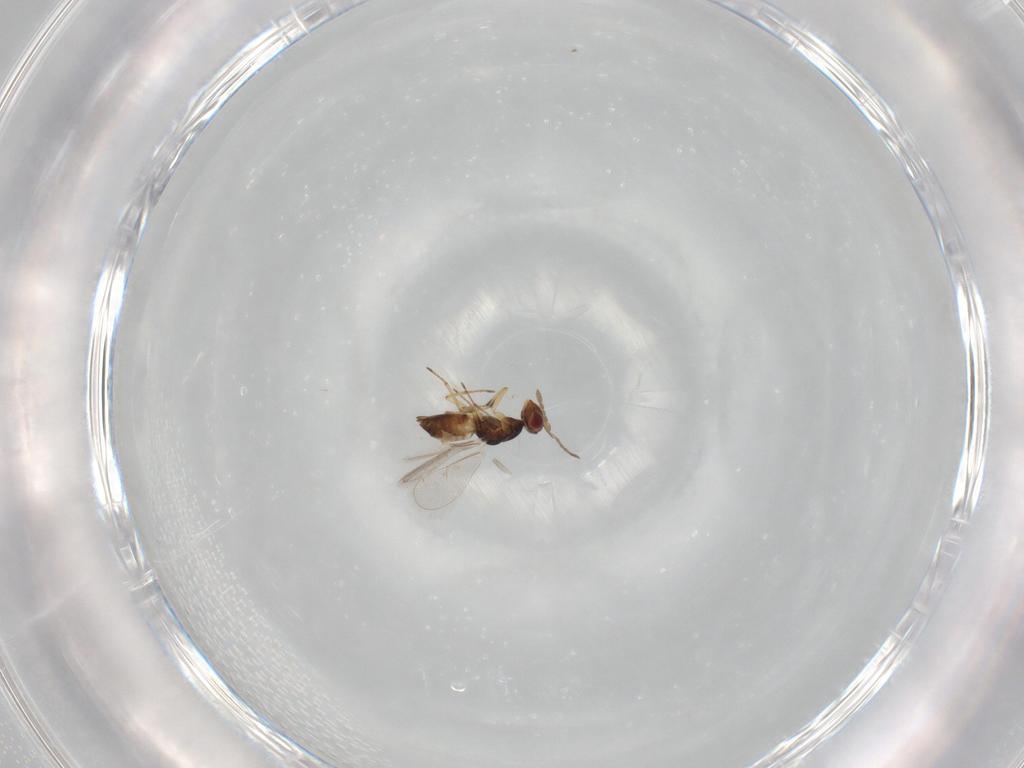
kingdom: Animalia
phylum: Arthropoda
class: Insecta
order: Hymenoptera
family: Eulophidae
